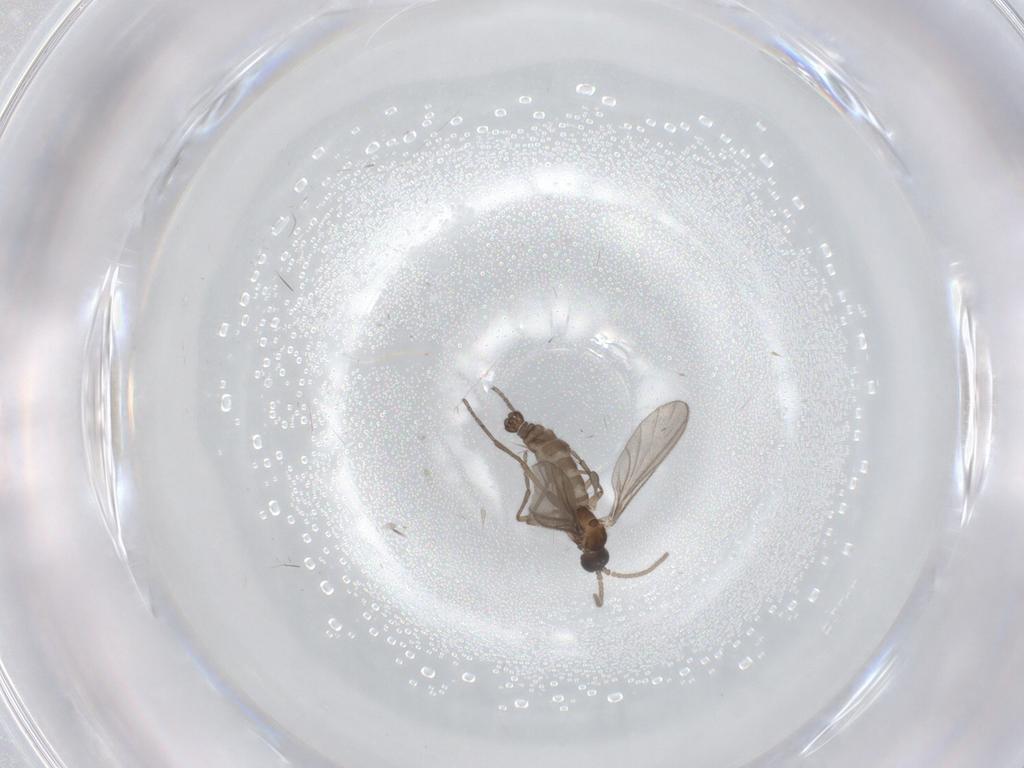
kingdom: Animalia
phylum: Arthropoda
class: Insecta
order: Diptera
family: Sciaridae
